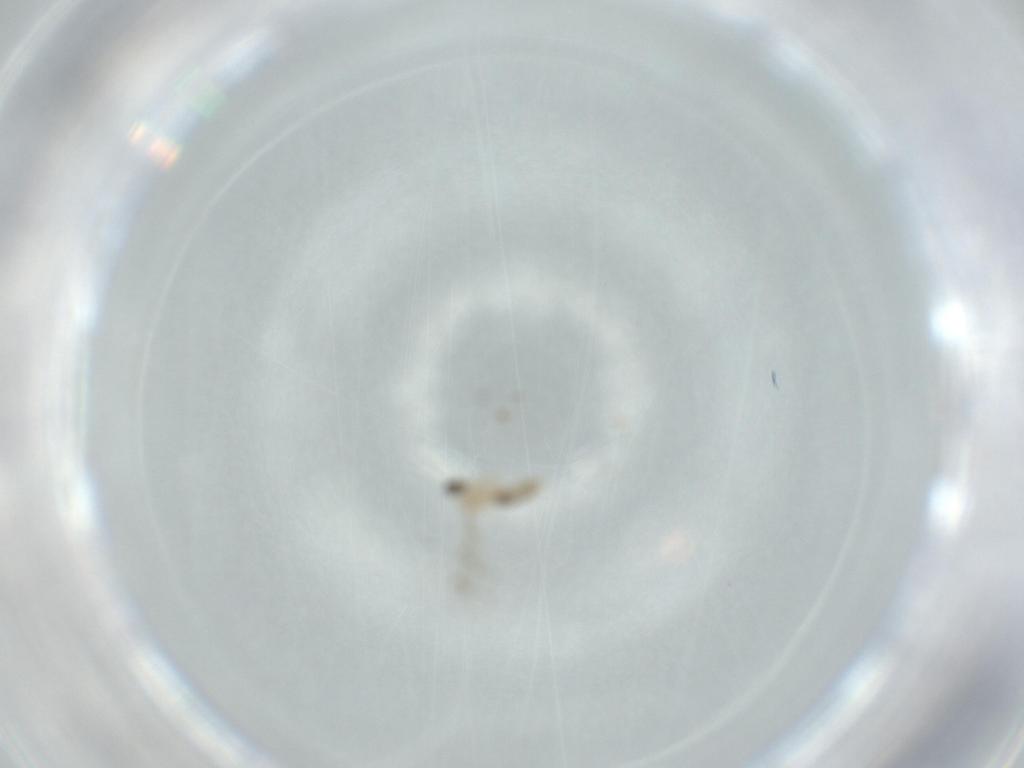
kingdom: Animalia
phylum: Arthropoda
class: Insecta
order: Diptera
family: Cecidomyiidae
